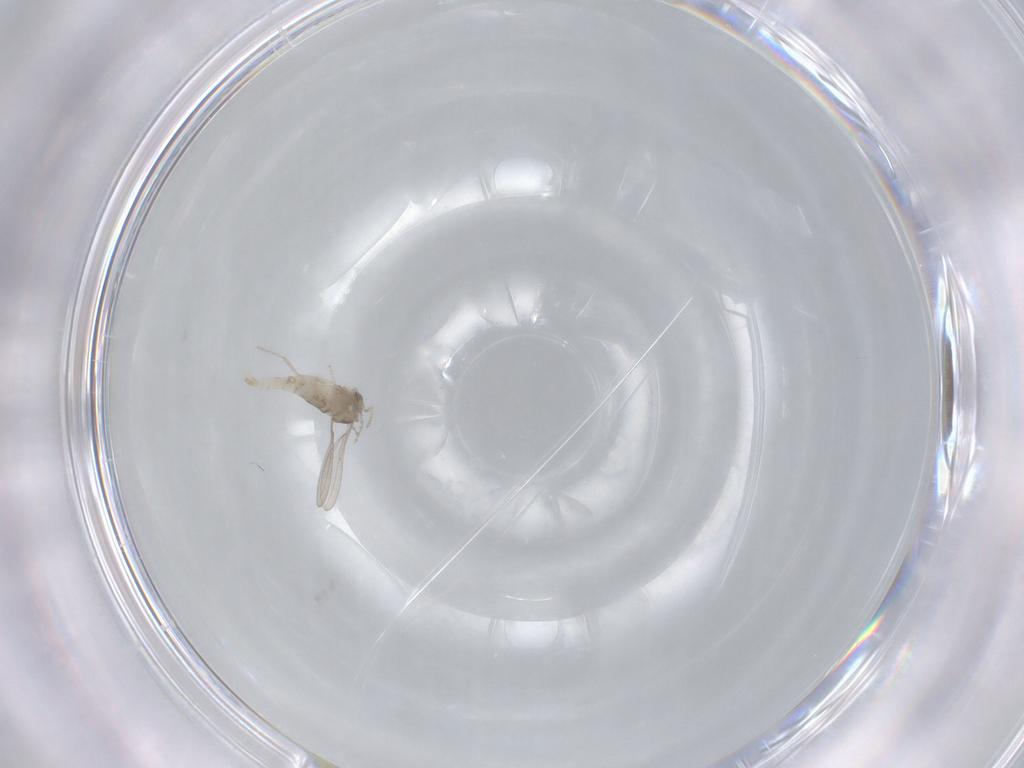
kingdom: Animalia
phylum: Arthropoda
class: Insecta
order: Diptera
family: Cecidomyiidae
